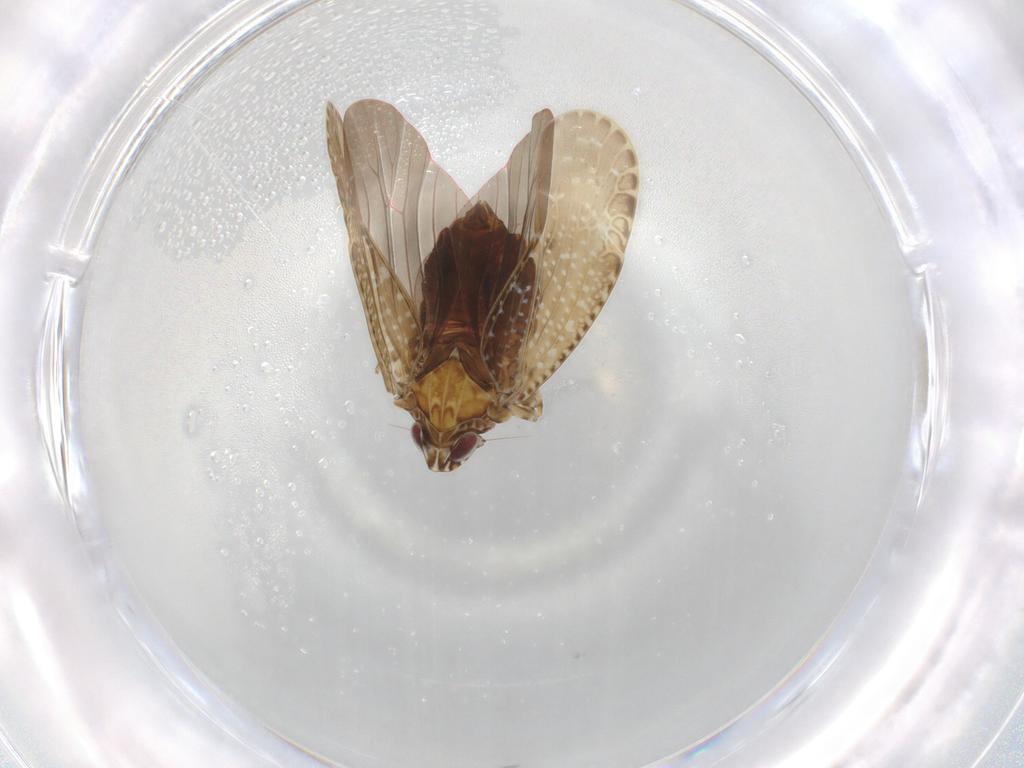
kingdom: Animalia
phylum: Arthropoda
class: Insecta
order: Hemiptera
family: Achilidae
